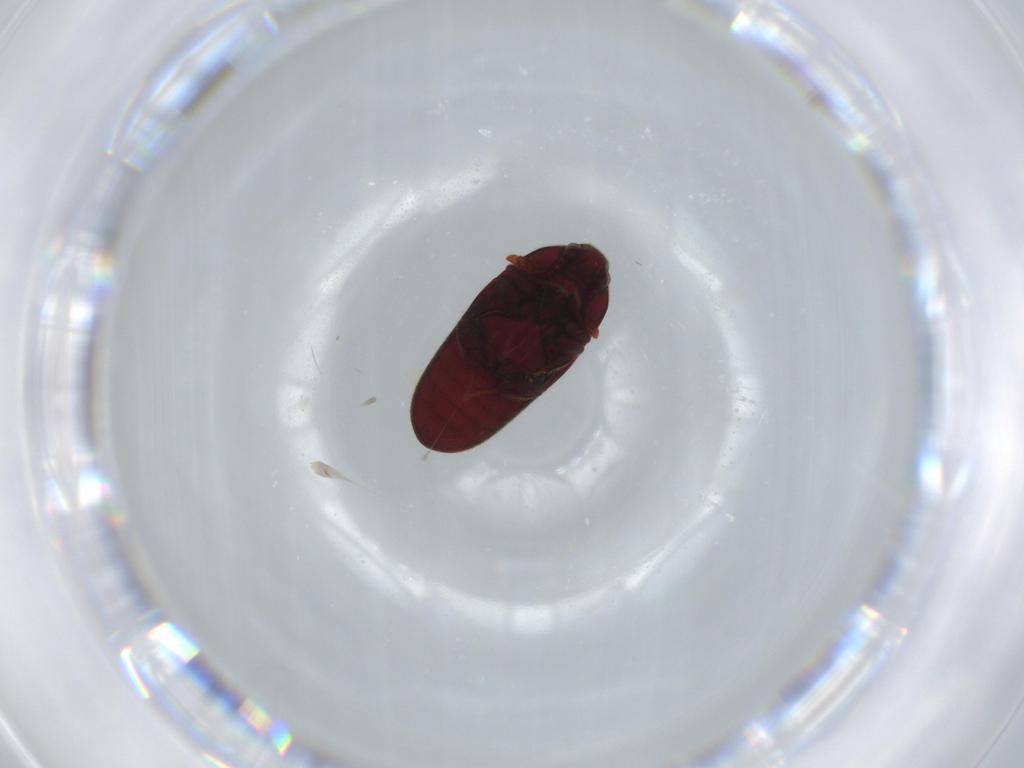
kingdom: Animalia
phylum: Arthropoda
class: Insecta
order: Coleoptera
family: Throscidae
